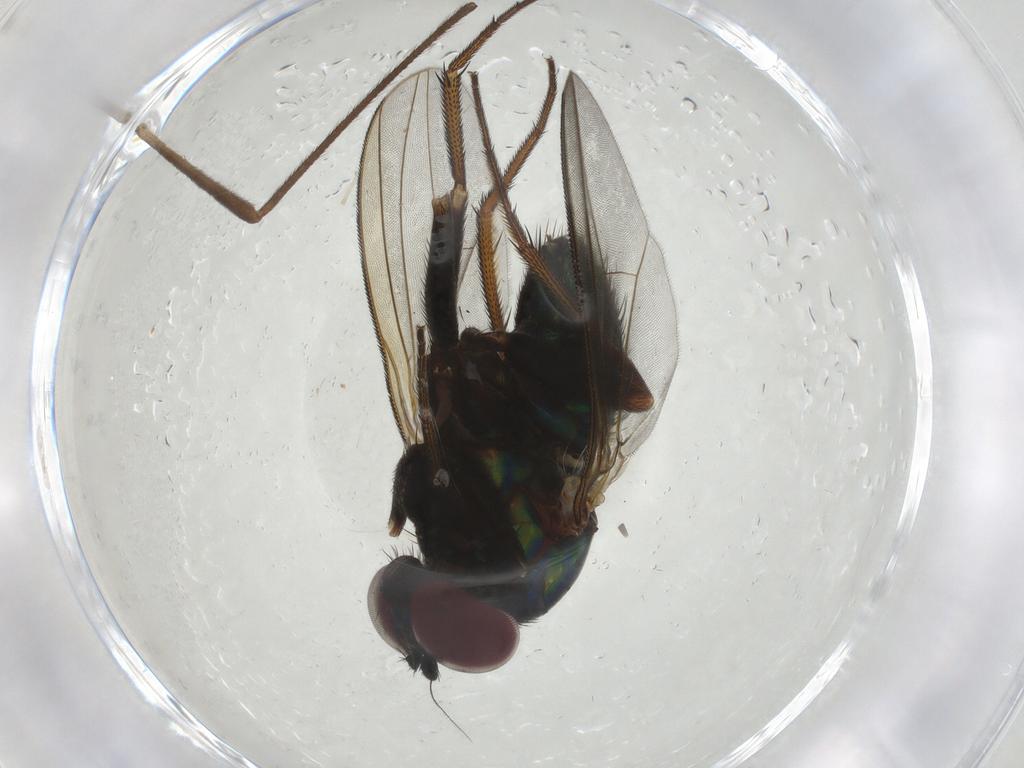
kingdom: Animalia
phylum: Arthropoda
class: Insecta
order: Diptera
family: Dolichopodidae
